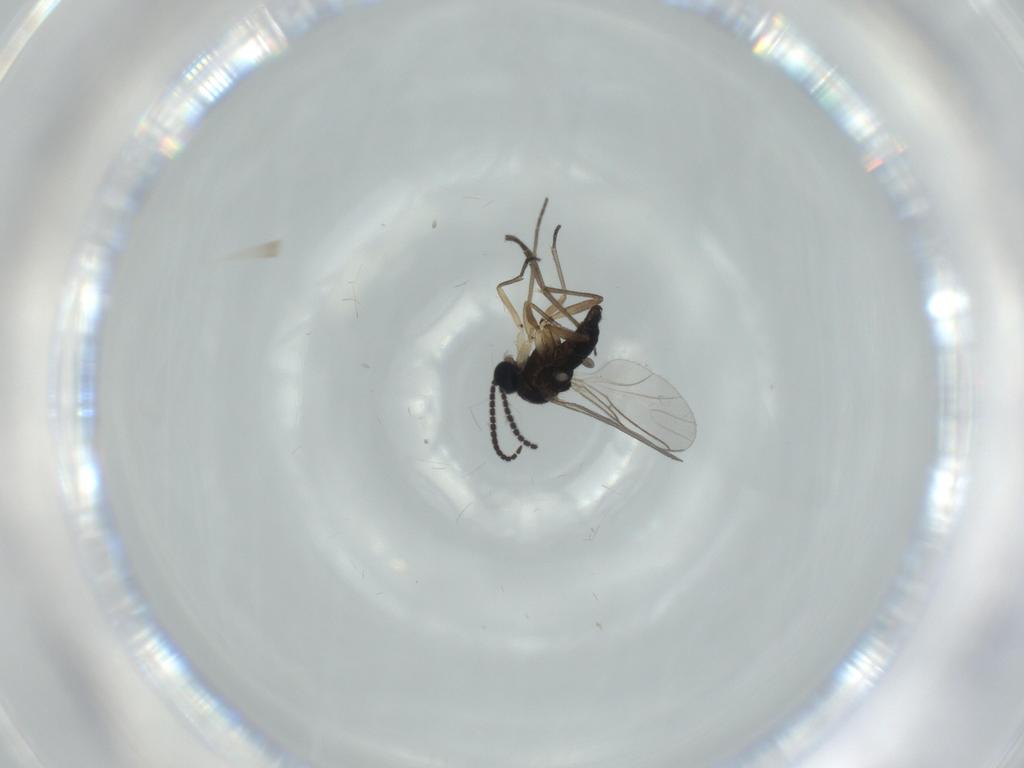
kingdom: Animalia
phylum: Arthropoda
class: Insecta
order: Diptera
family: Sciaridae
